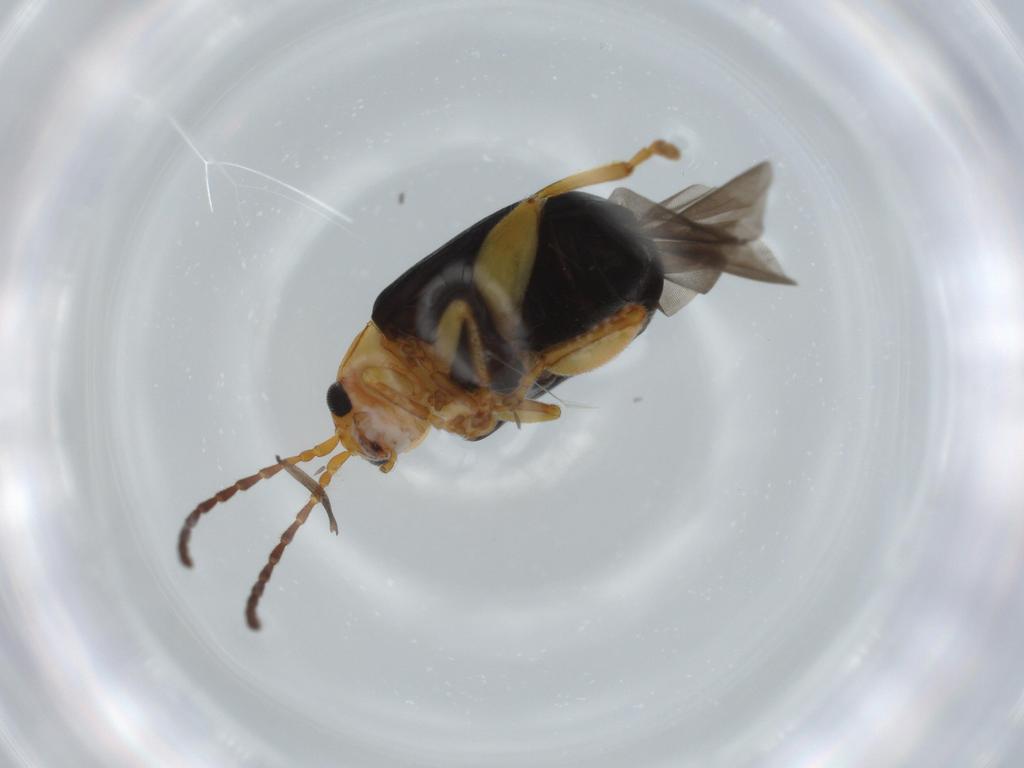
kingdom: Animalia
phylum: Arthropoda
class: Insecta
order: Coleoptera
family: Chrysomelidae
